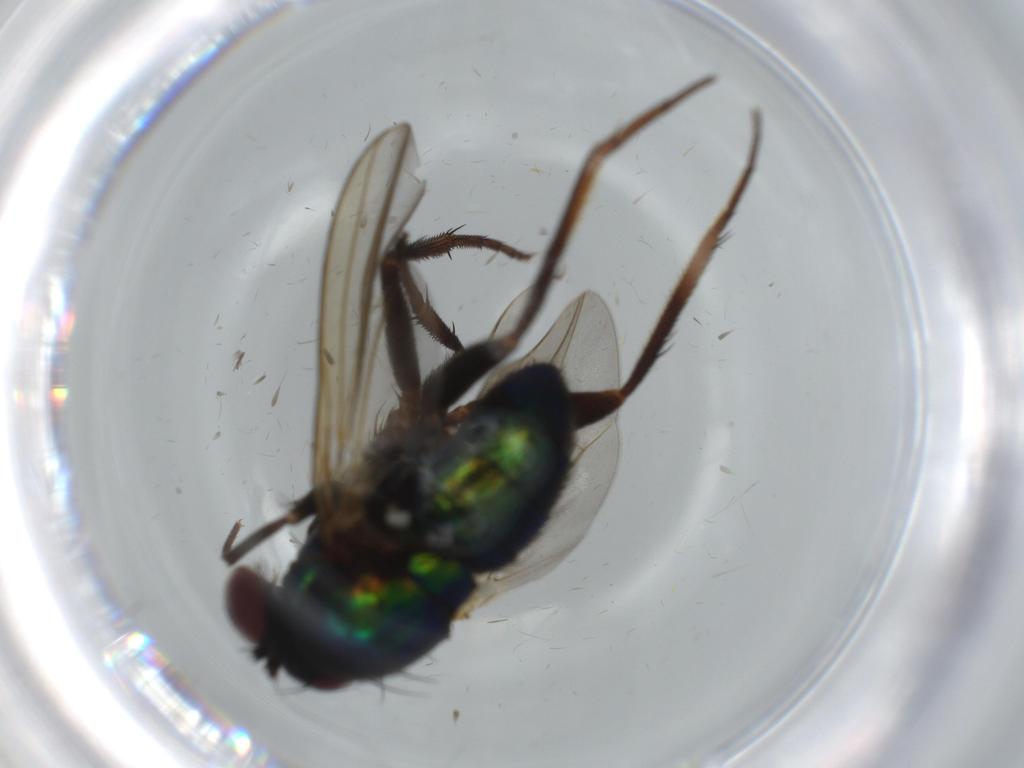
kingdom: Animalia
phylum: Arthropoda
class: Insecta
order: Diptera
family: Sciaridae
